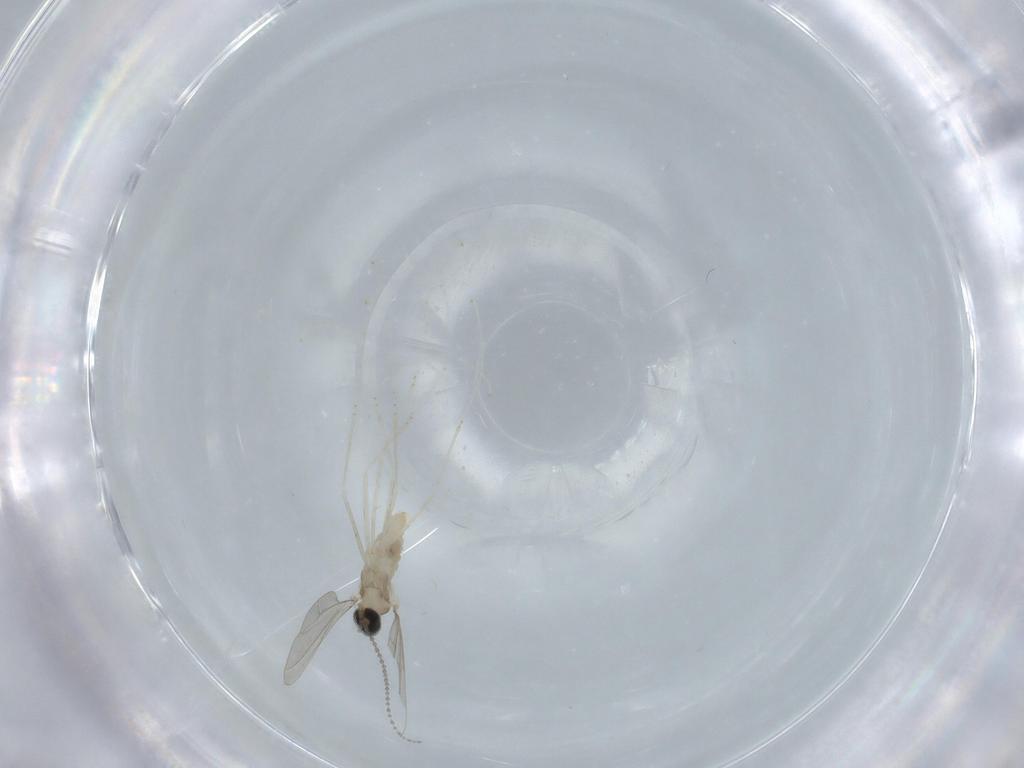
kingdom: Animalia
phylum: Arthropoda
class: Insecta
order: Diptera
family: Cecidomyiidae
